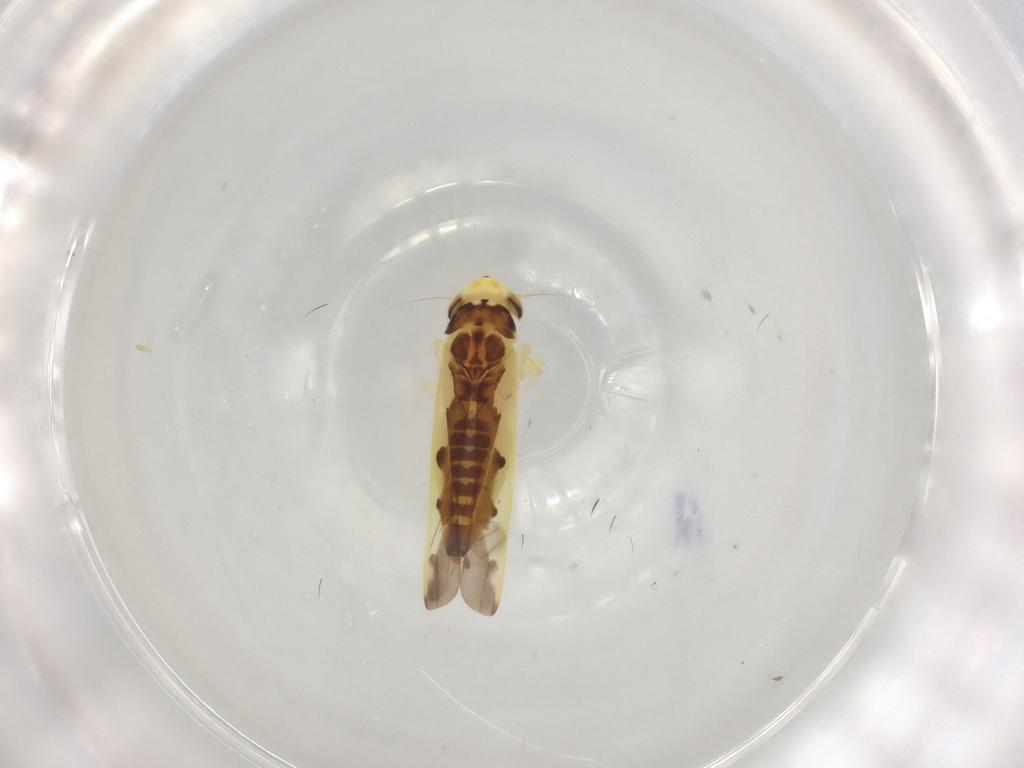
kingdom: Animalia
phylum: Arthropoda
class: Insecta
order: Hemiptera
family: Cicadellidae
